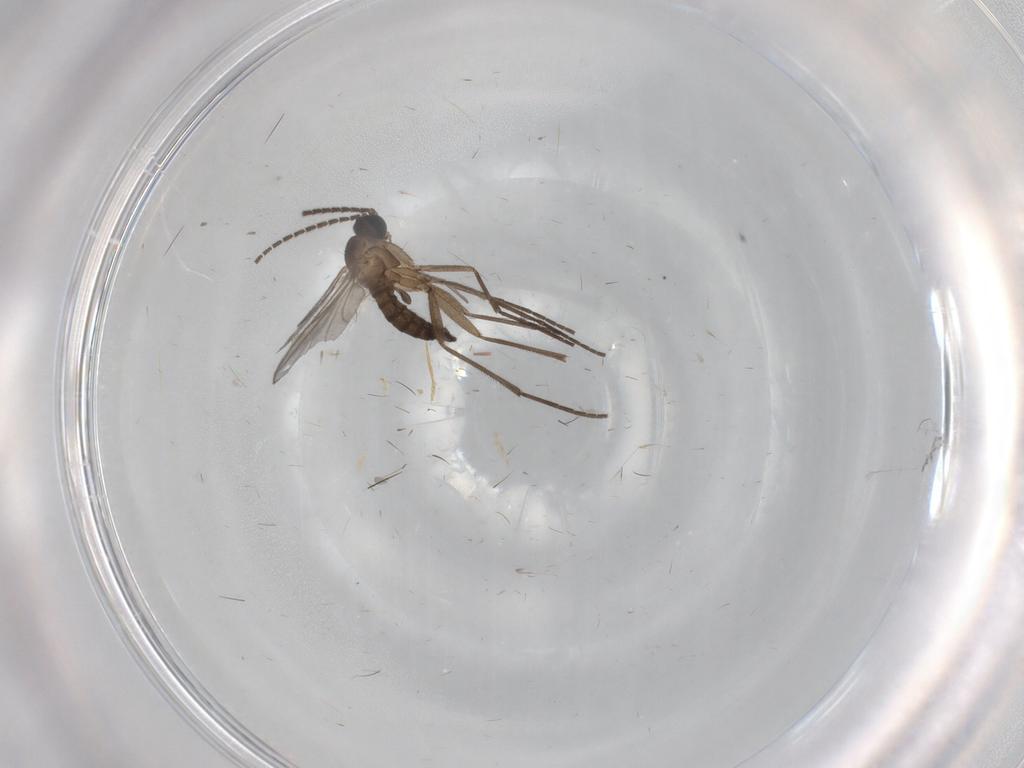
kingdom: Animalia
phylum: Arthropoda
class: Insecta
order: Diptera
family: Sciaridae
